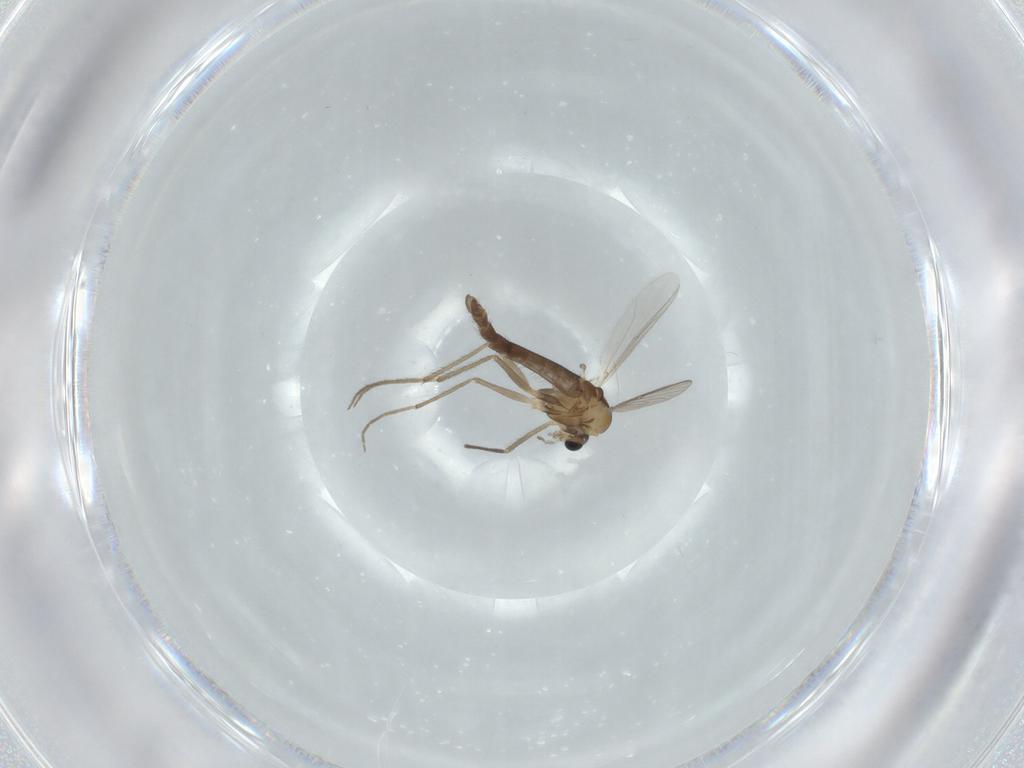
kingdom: Animalia
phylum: Arthropoda
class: Insecta
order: Diptera
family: Chironomidae
